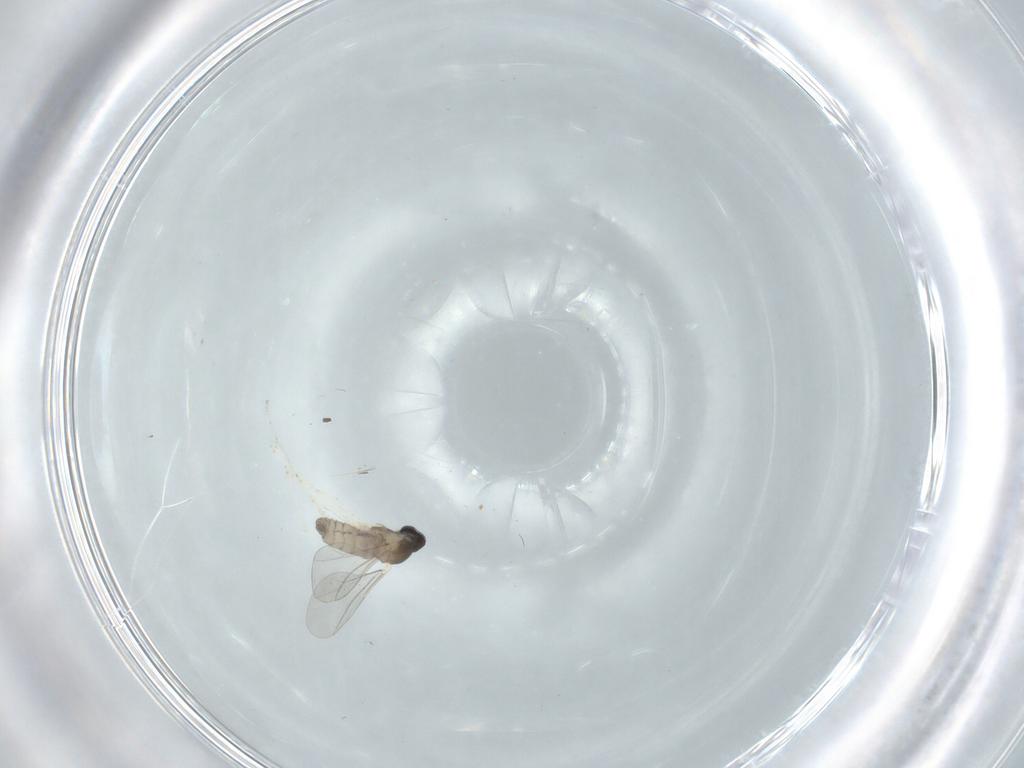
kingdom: Animalia
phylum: Arthropoda
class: Insecta
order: Diptera
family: Cecidomyiidae
